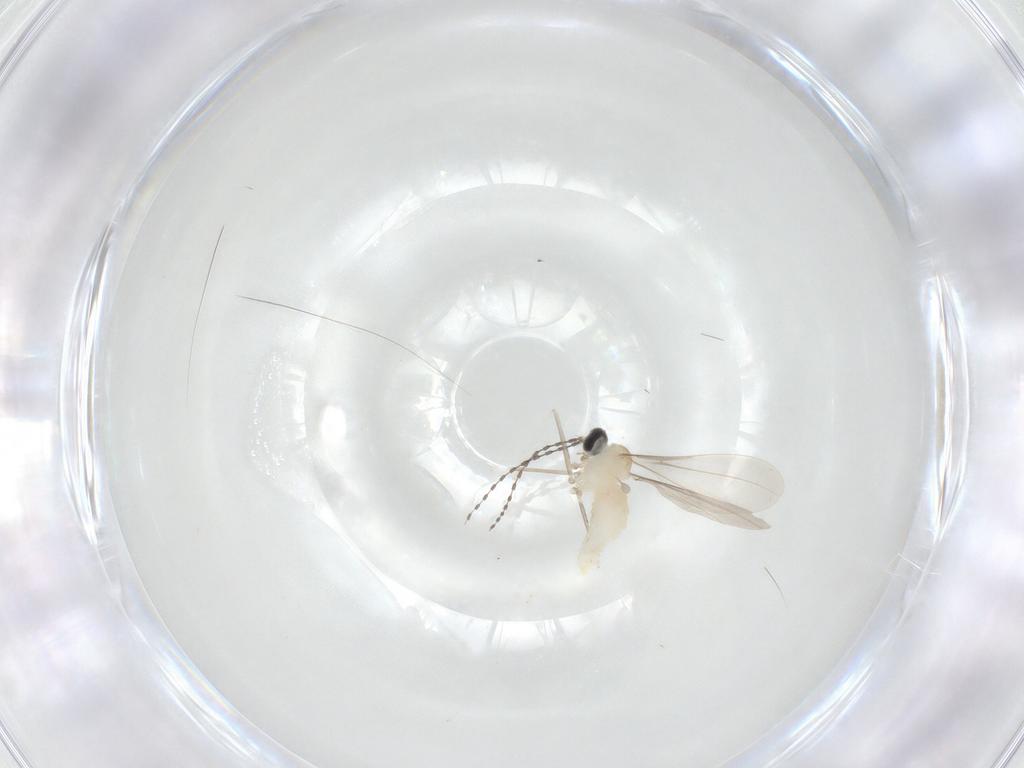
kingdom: Animalia
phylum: Arthropoda
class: Insecta
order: Diptera
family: Cecidomyiidae
